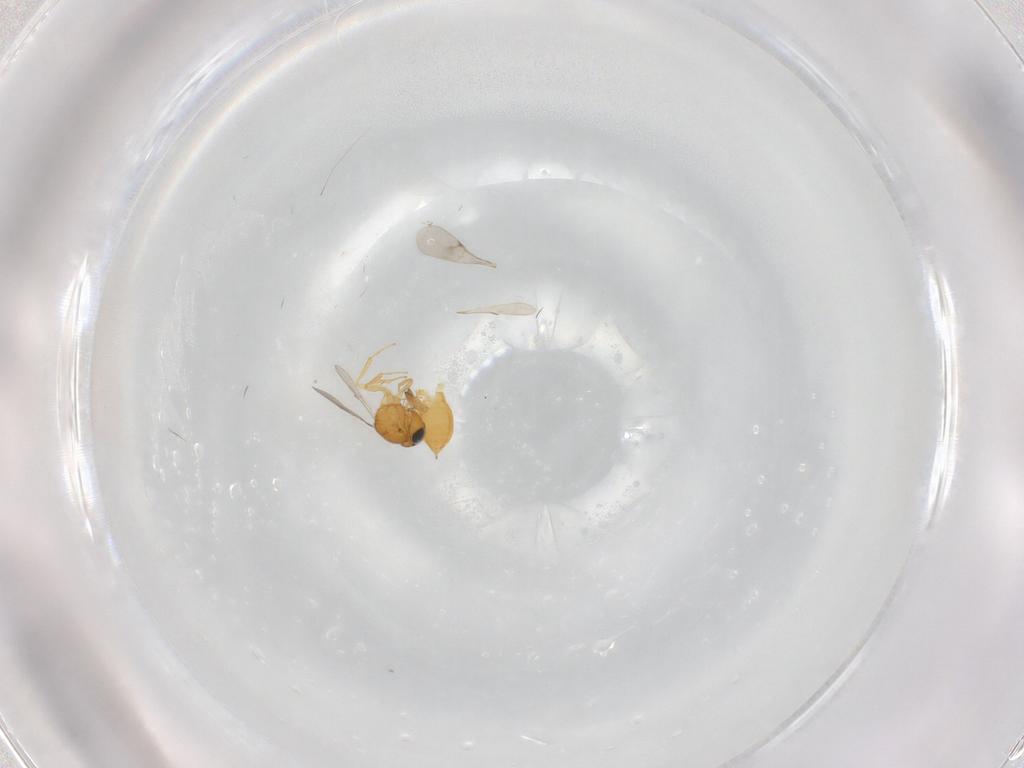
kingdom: Animalia
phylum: Arthropoda
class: Insecta
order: Hymenoptera
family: Scelionidae
